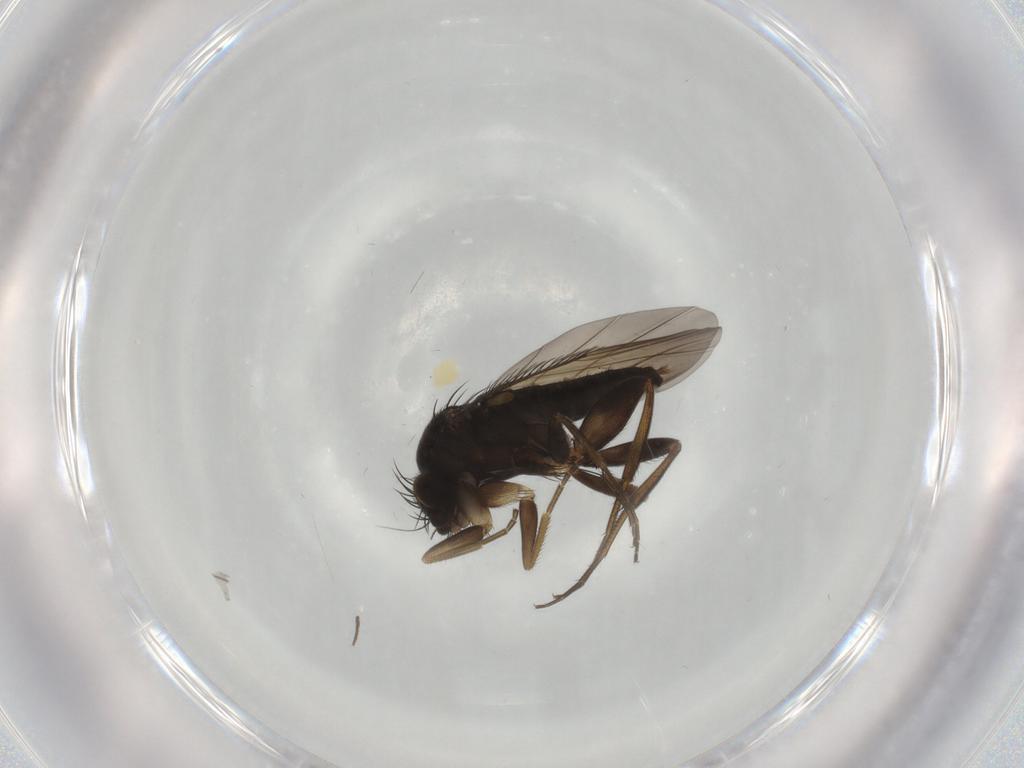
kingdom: Animalia
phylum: Arthropoda
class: Insecta
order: Diptera
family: Phoridae
